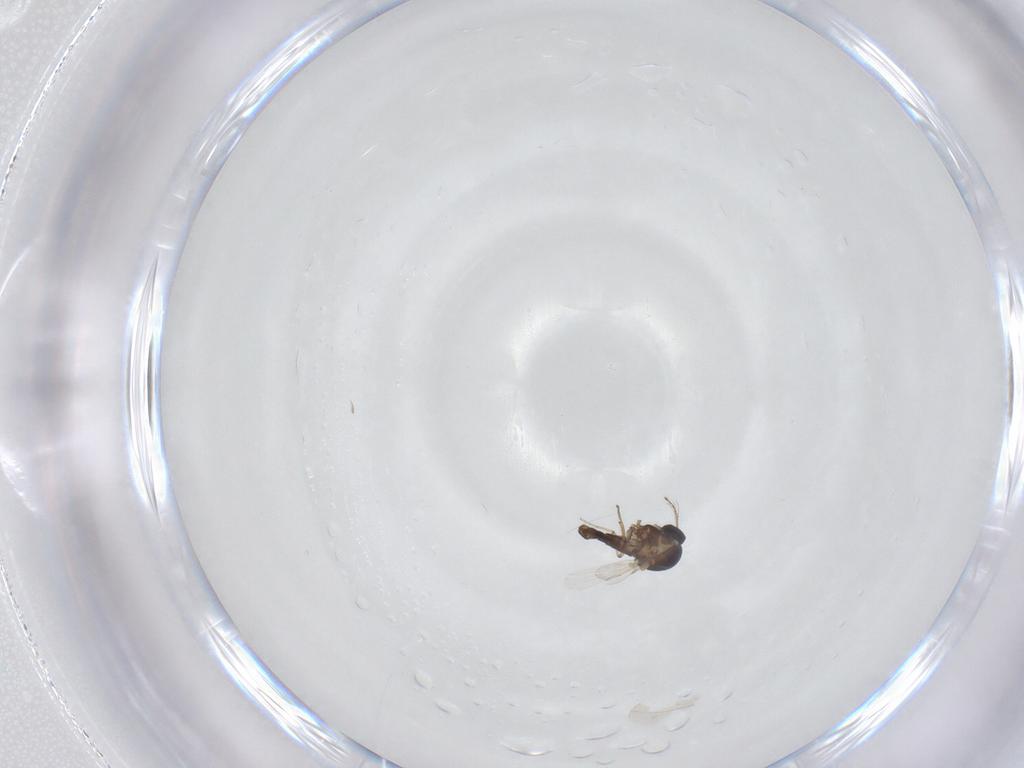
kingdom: Animalia
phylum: Arthropoda
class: Insecta
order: Diptera
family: Ceratopogonidae
